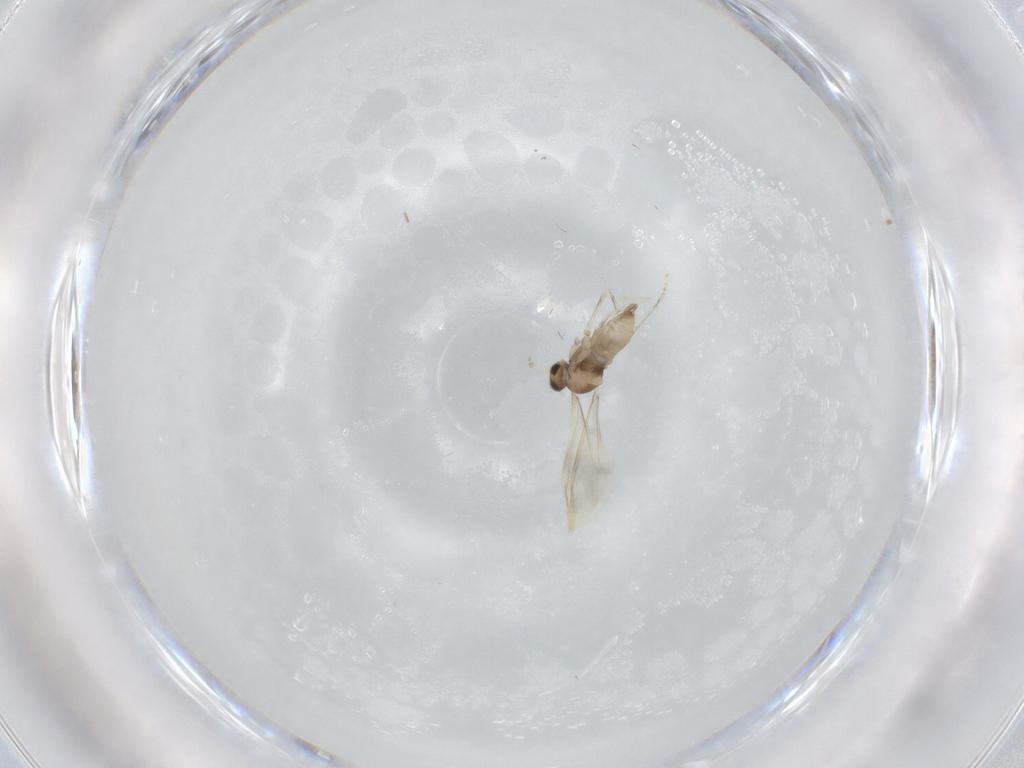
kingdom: Animalia
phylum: Arthropoda
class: Insecta
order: Diptera
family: Cecidomyiidae
